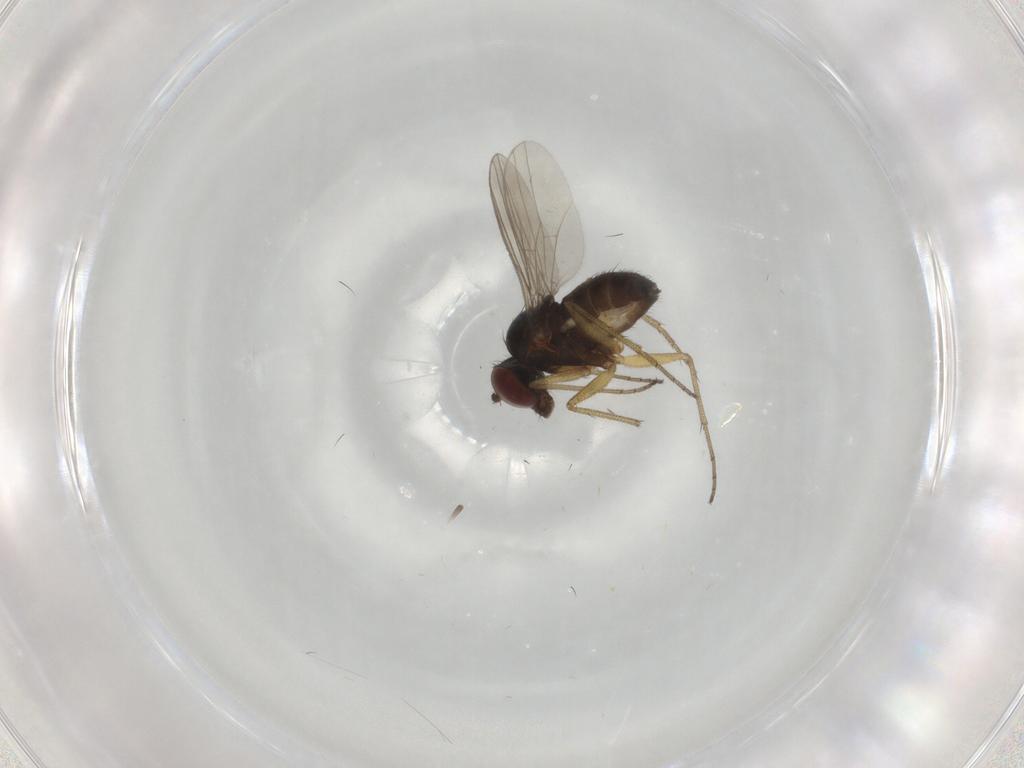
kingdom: Animalia
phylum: Arthropoda
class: Insecta
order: Diptera
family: Dolichopodidae
